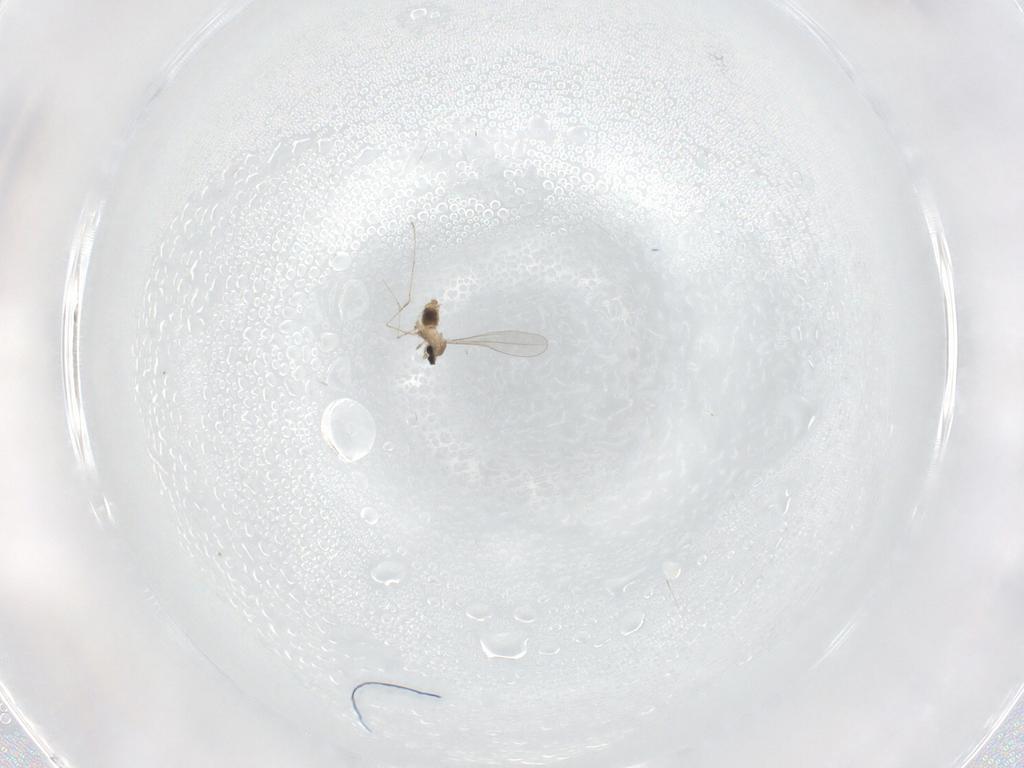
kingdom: Animalia
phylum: Arthropoda
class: Insecta
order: Diptera
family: Cecidomyiidae
